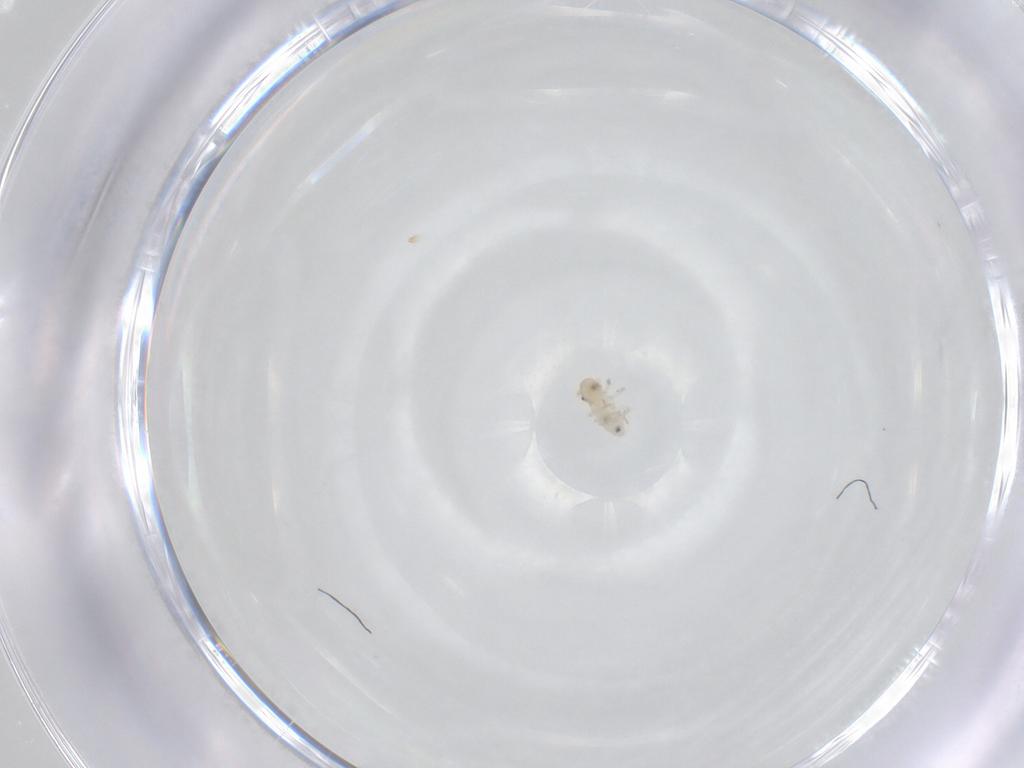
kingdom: Animalia
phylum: Arthropoda
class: Insecta
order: Psocodea
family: Philotarsidae
